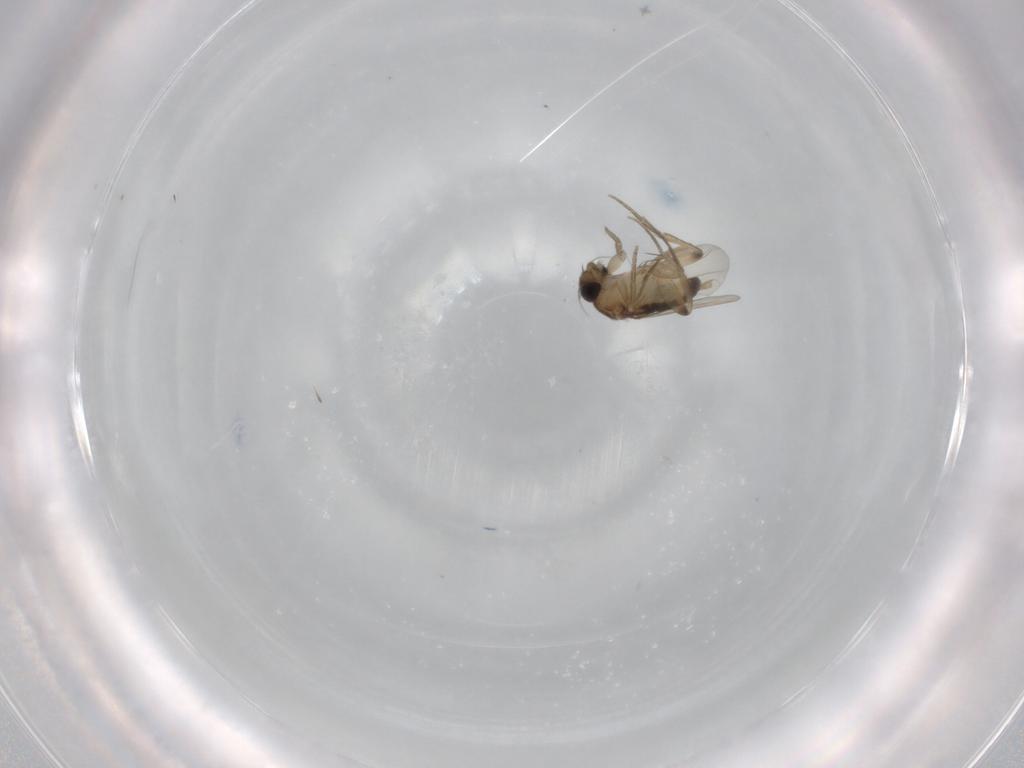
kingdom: Animalia
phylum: Arthropoda
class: Insecta
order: Diptera
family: Phoridae
